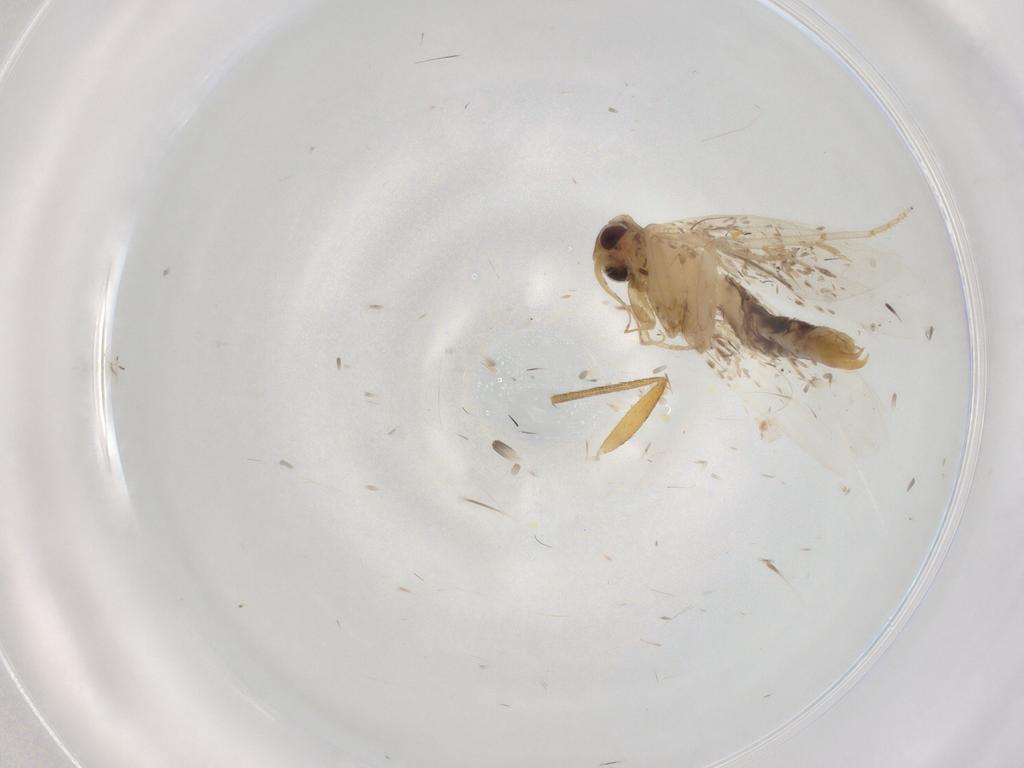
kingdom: Animalia
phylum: Arthropoda
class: Insecta
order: Lepidoptera
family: Oecophoridae
